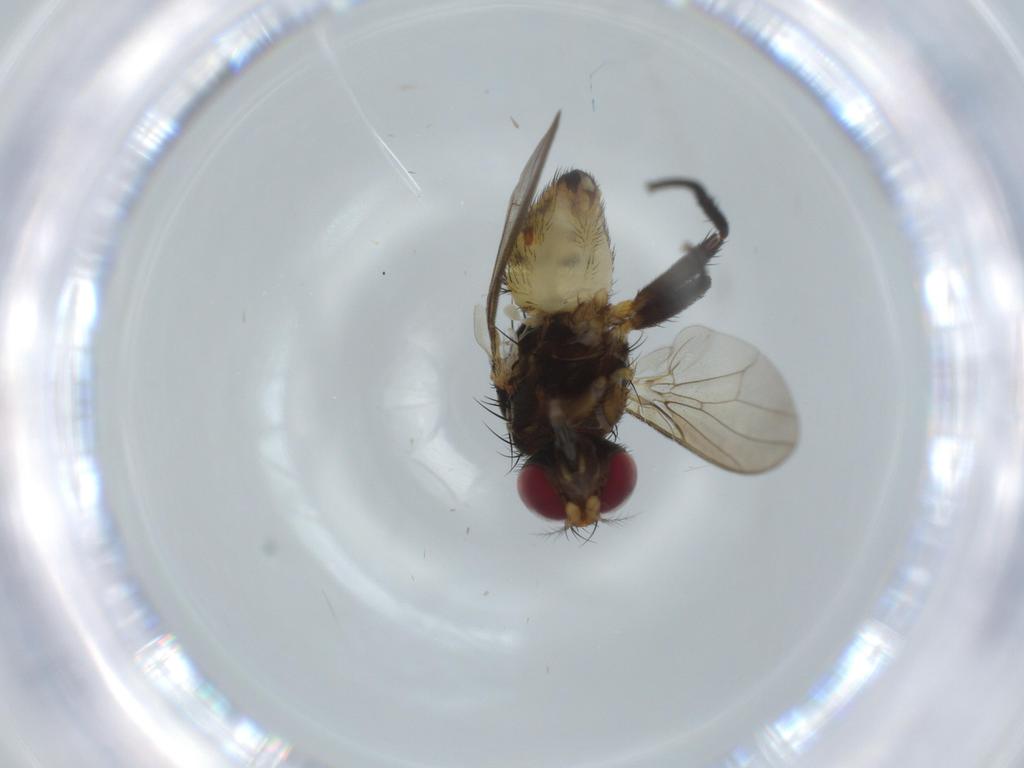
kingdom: Animalia
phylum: Arthropoda
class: Insecta
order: Diptera
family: Anthomyiidae
